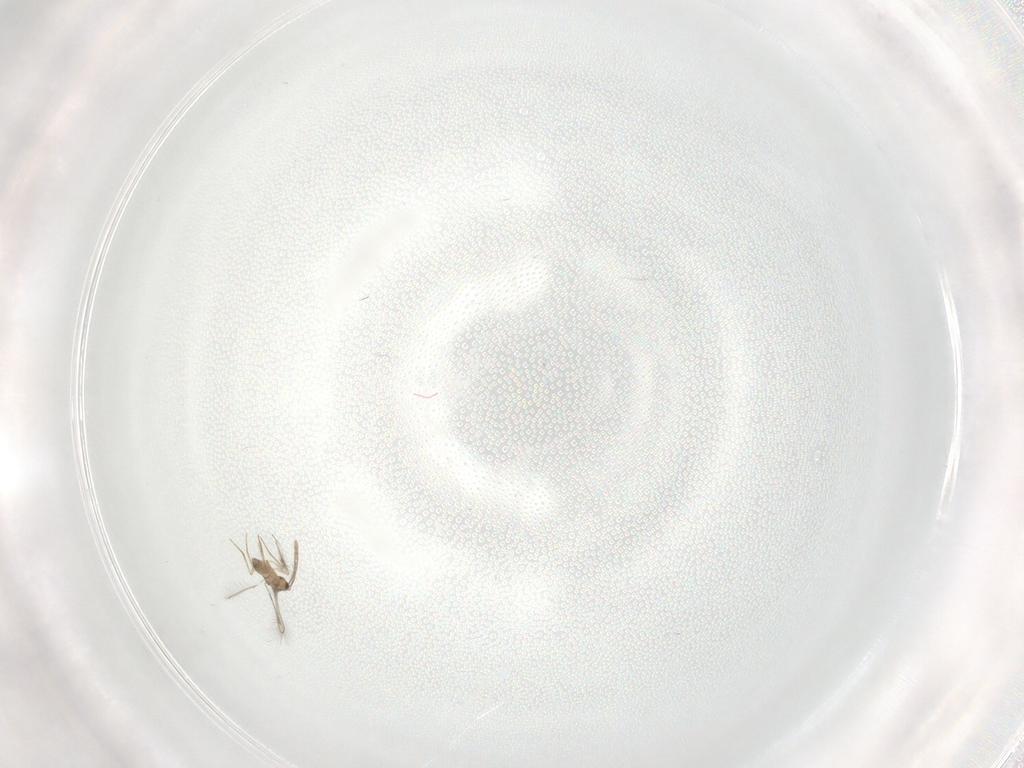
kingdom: Animalia
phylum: Arthropoda
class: Insecta
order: Hymenoptera
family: Mymaridae
